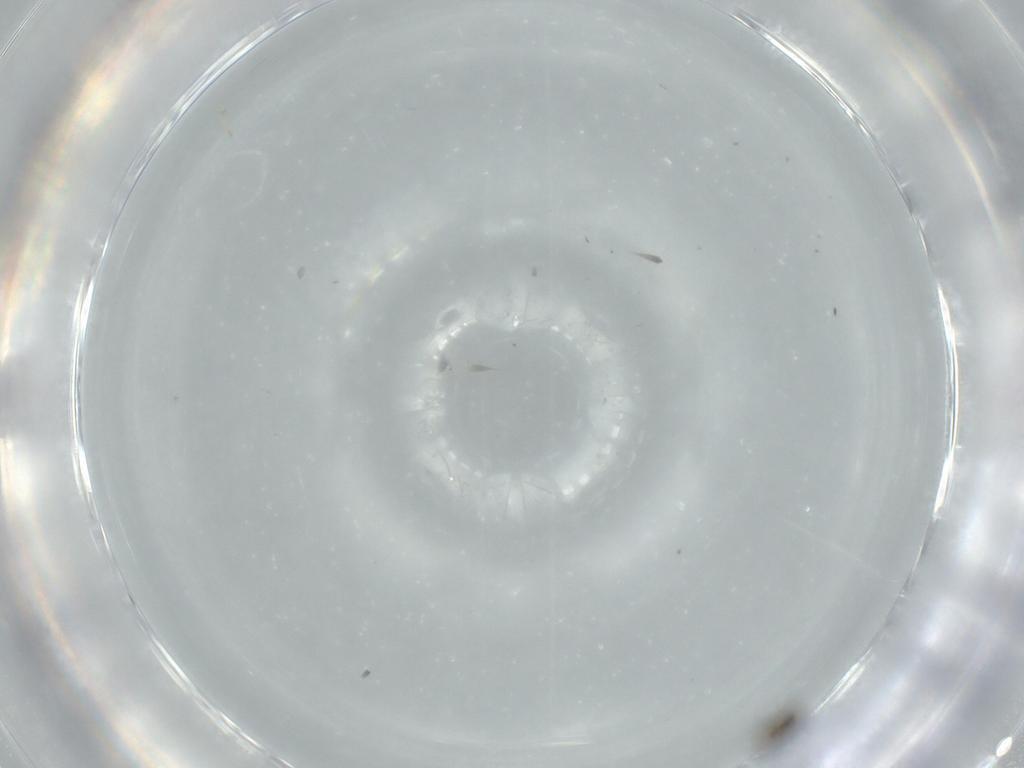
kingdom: Animalia
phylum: Arthropoda
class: Insecta
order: Hymenoptera
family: Aphelinidae
